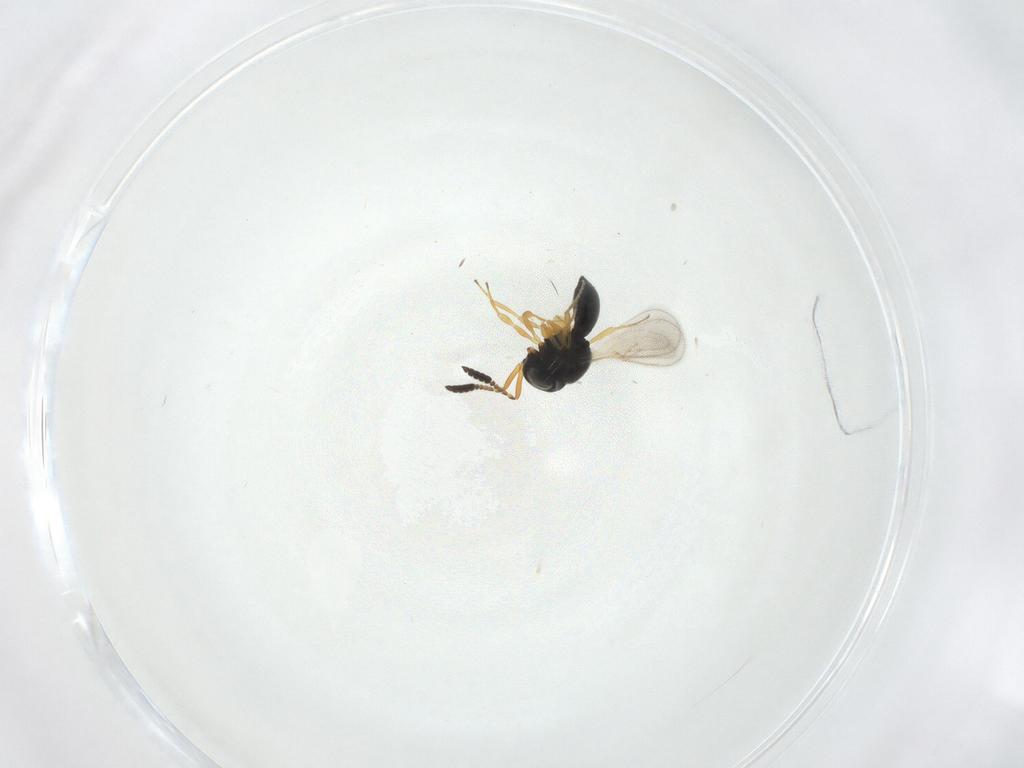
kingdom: Animalia
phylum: Arthropoda
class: Insecta
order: Hymenoptera
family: Scelionidae
